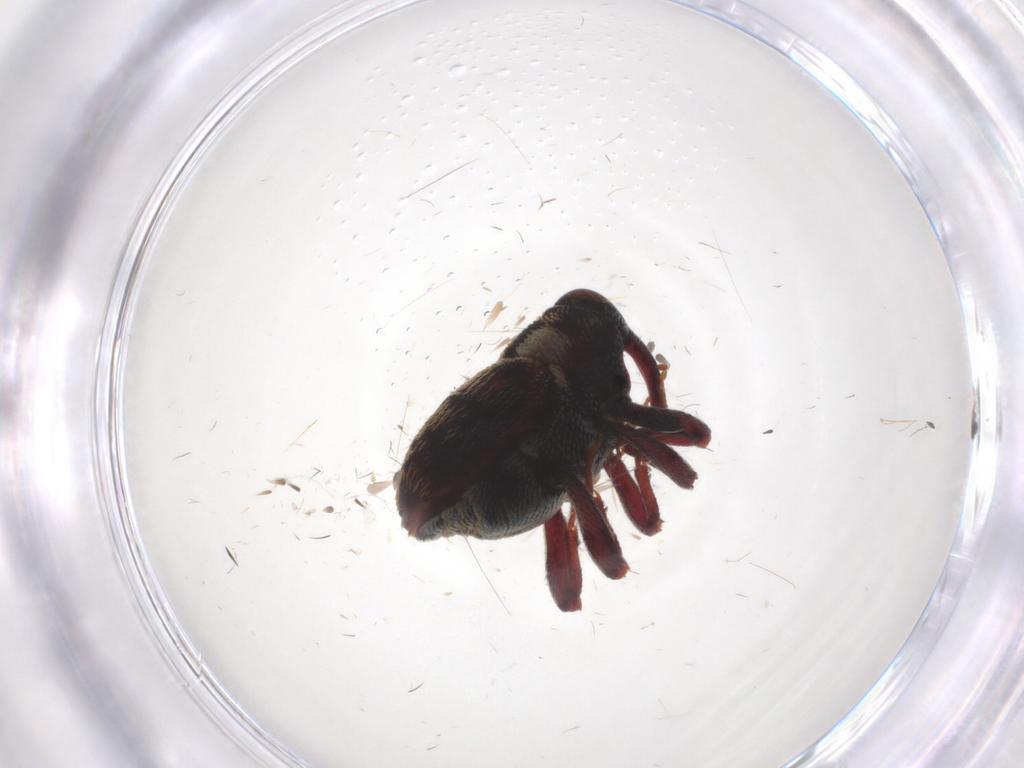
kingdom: Animalia
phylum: Arthropoda
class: Insecta
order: Coleoptera
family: Ptilodactylidae
